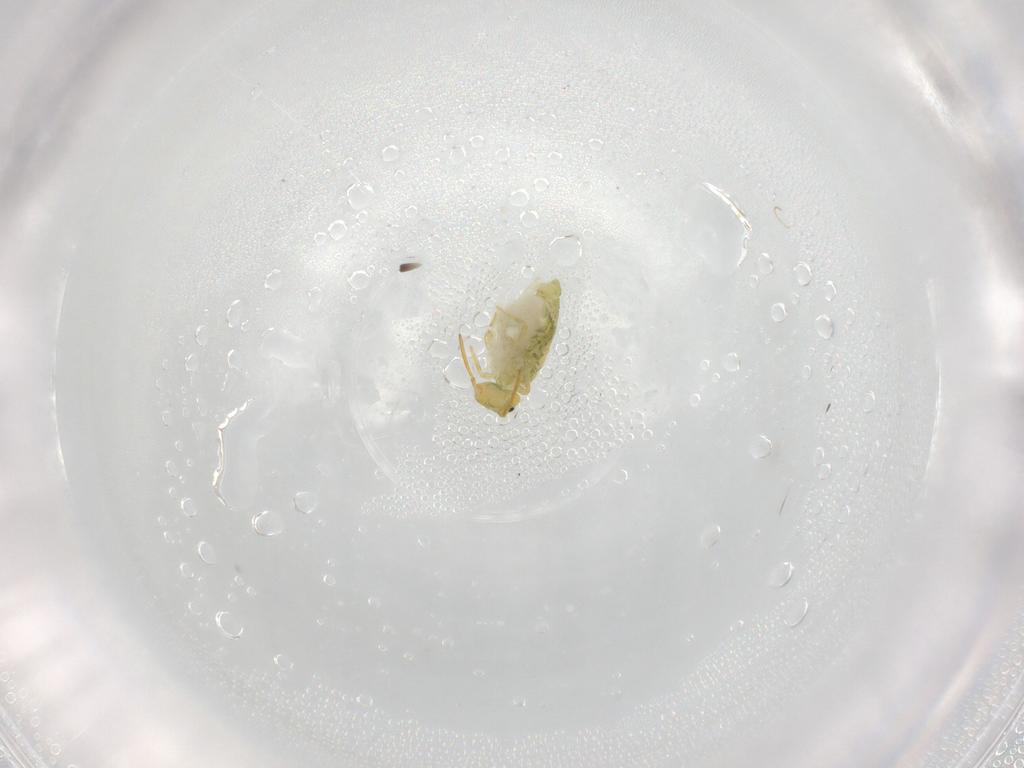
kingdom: Animalia
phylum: Arthropoda
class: Collembola
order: Symphypleona
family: Katiannidae
